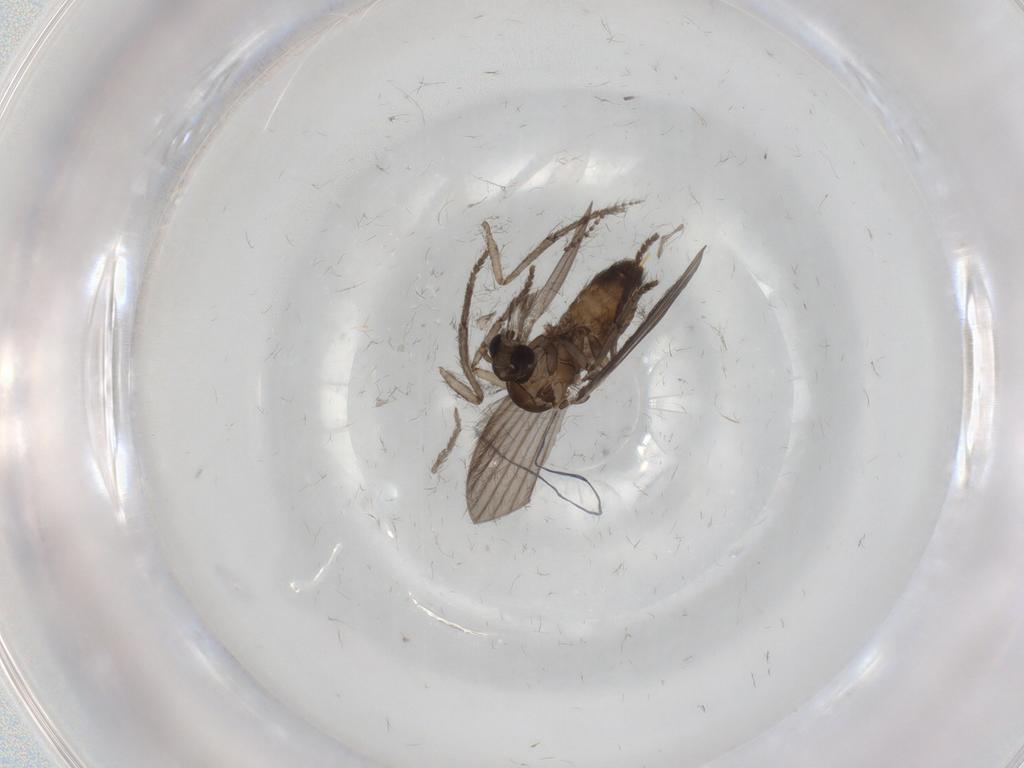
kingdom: Animalia
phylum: Arthropoda
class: Insecta
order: Diptera
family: Psychodidae
